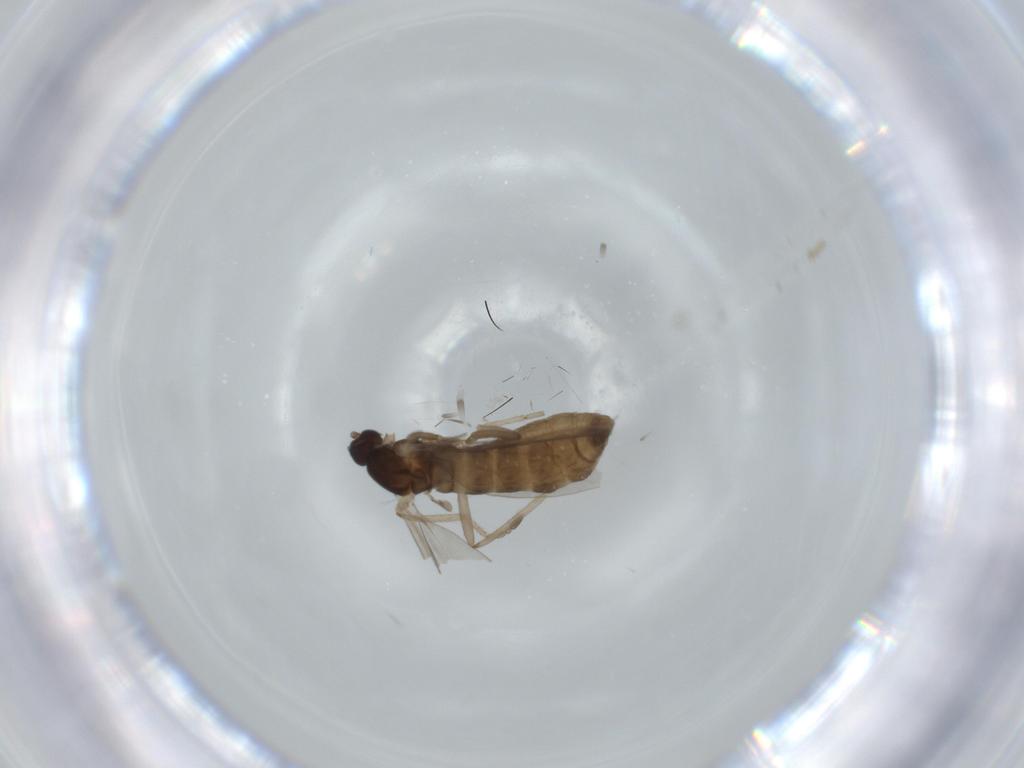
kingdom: Animalia
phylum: Arthropoda
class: Insecta
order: Diptera
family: Cecidomyiidae
